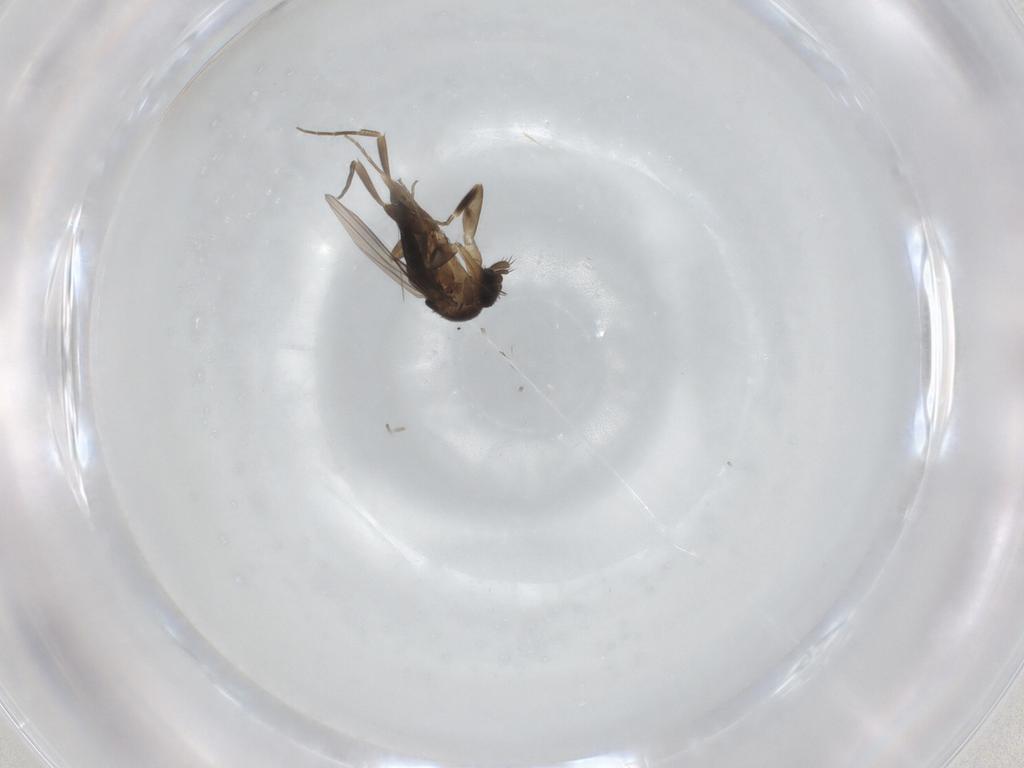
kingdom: Animalia
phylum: Arthropoda
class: Insecta
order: Diptera
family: Phoridae
